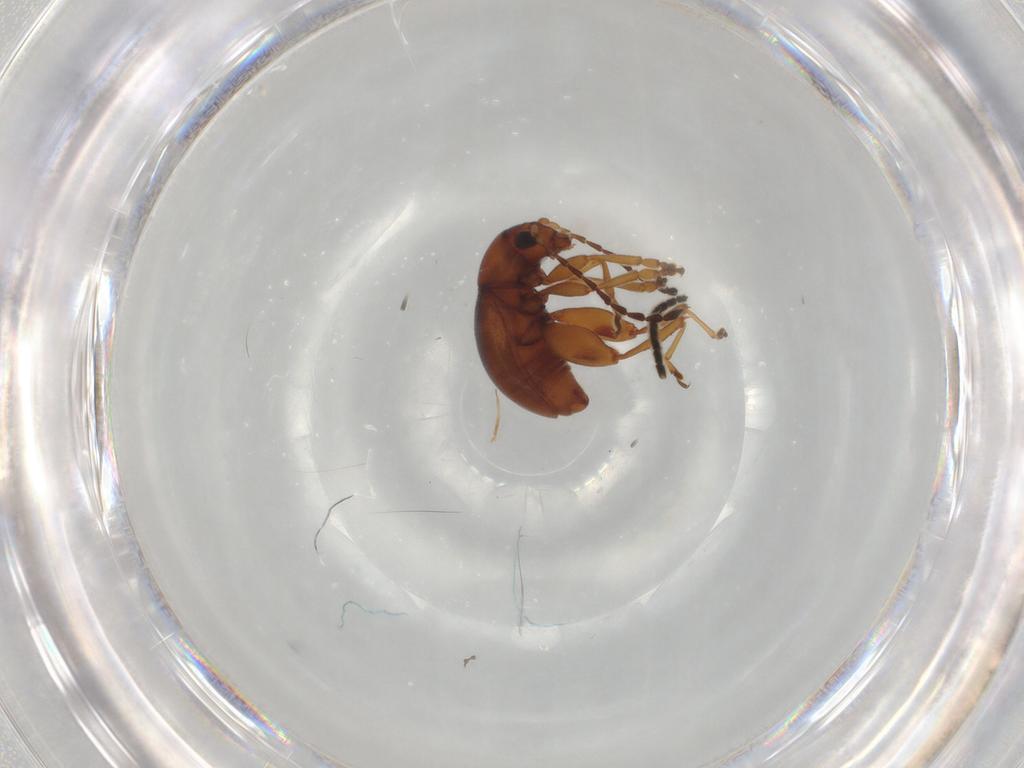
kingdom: Animalia
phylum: Arthropoda
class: Insecta
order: Coleoptera
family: Chrysomelidae
